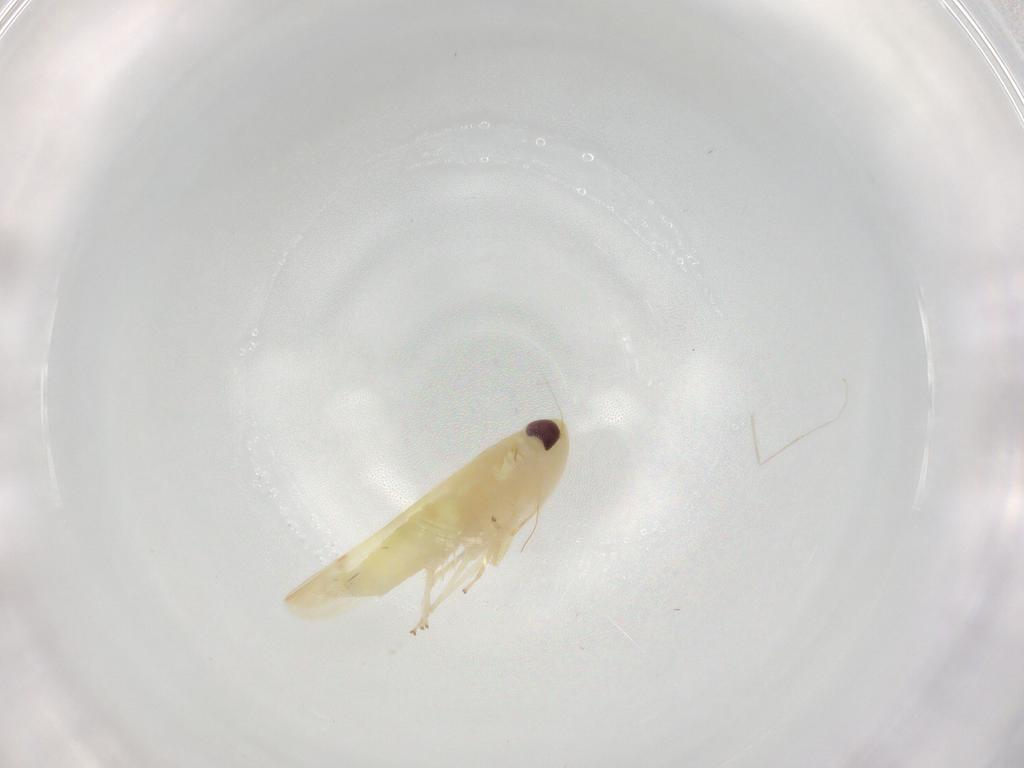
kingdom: Animalia
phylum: Arthropoda
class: Insecta
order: Hemiptera
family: Cicadellidae
